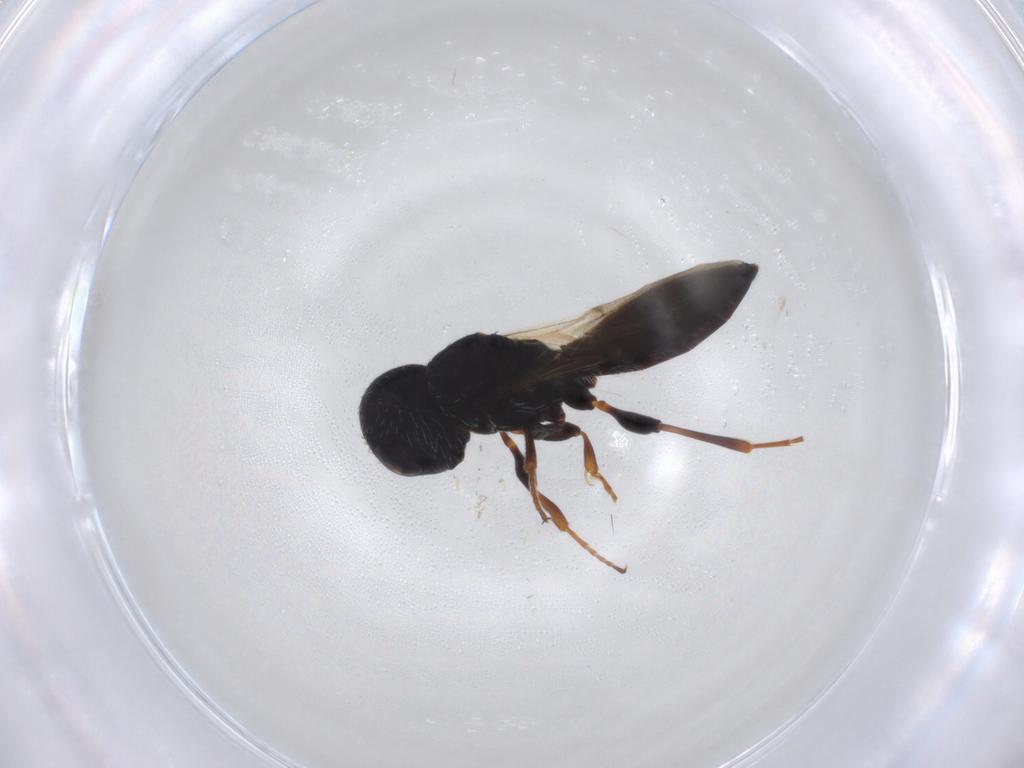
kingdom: Animalia
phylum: Arthropoda
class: Insecta
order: Hymenoptera
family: Scelionidae
